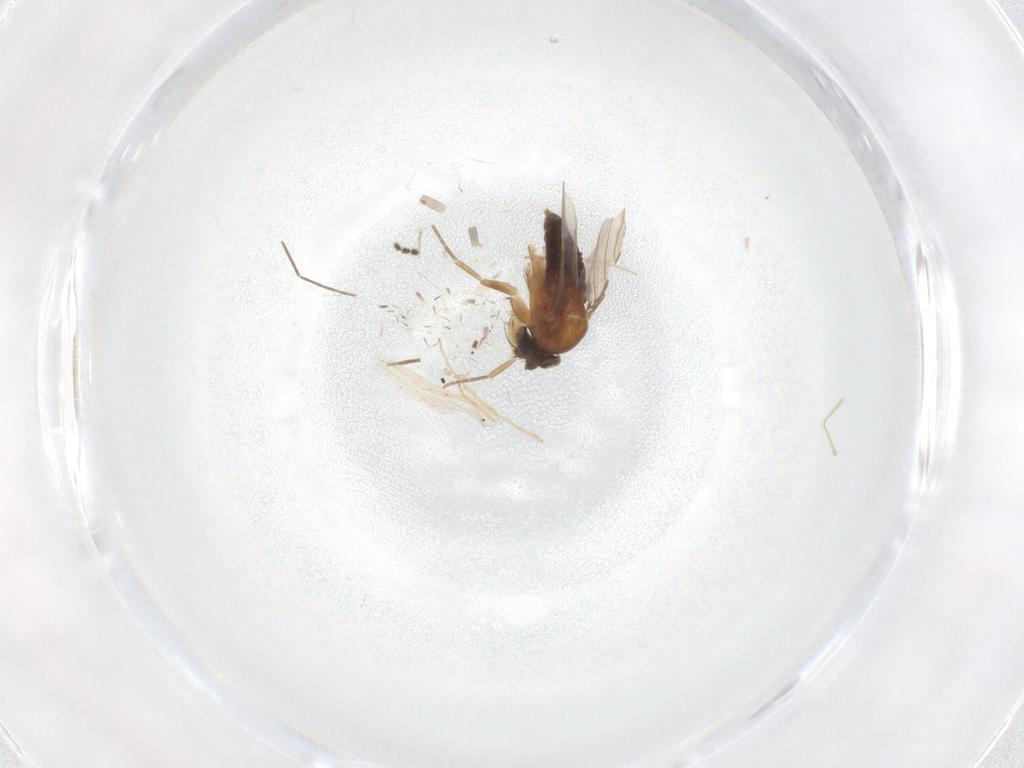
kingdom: Animalia
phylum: Arthropoda
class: Insecta
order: Diptera
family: Chironomidae
